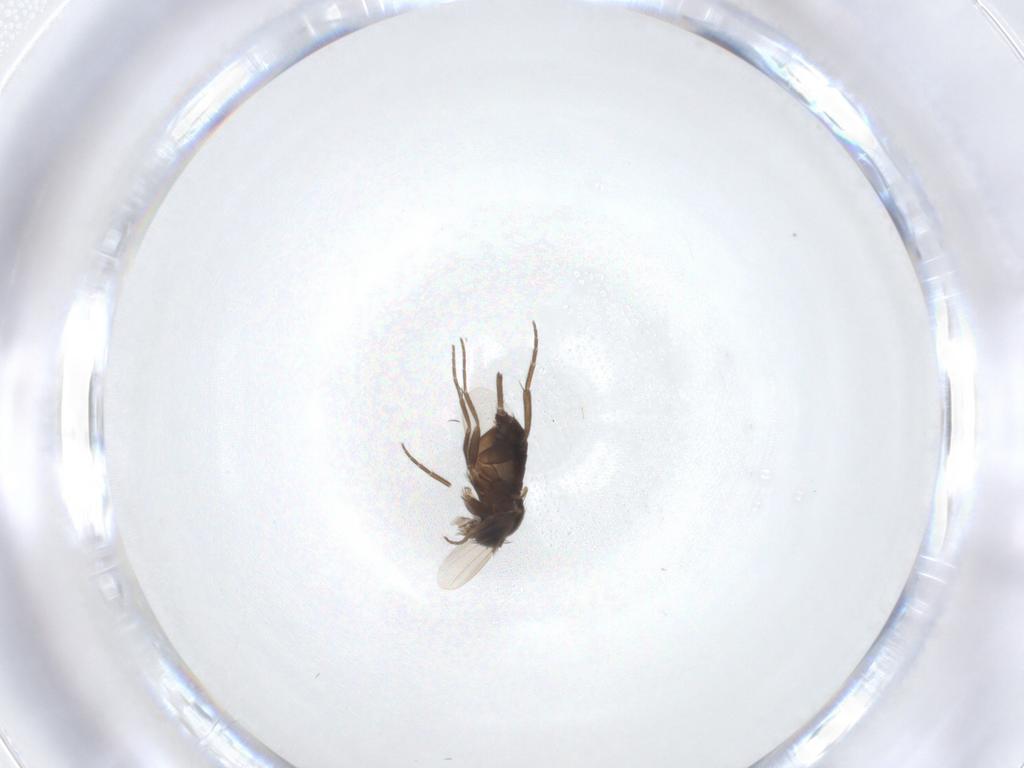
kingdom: Animalia
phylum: Arthropoda
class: Insecta
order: Diptera
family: Phoridae
